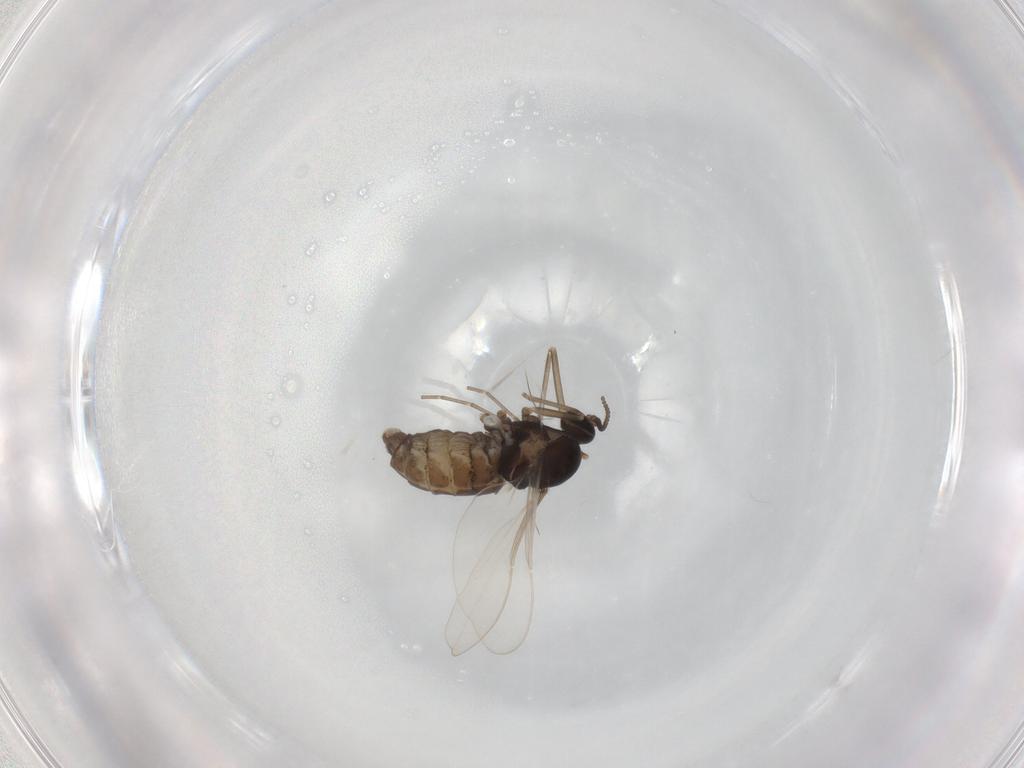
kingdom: Animalia
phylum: Arthropoda
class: Insecta
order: Diptera
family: Cecidomyiidae
